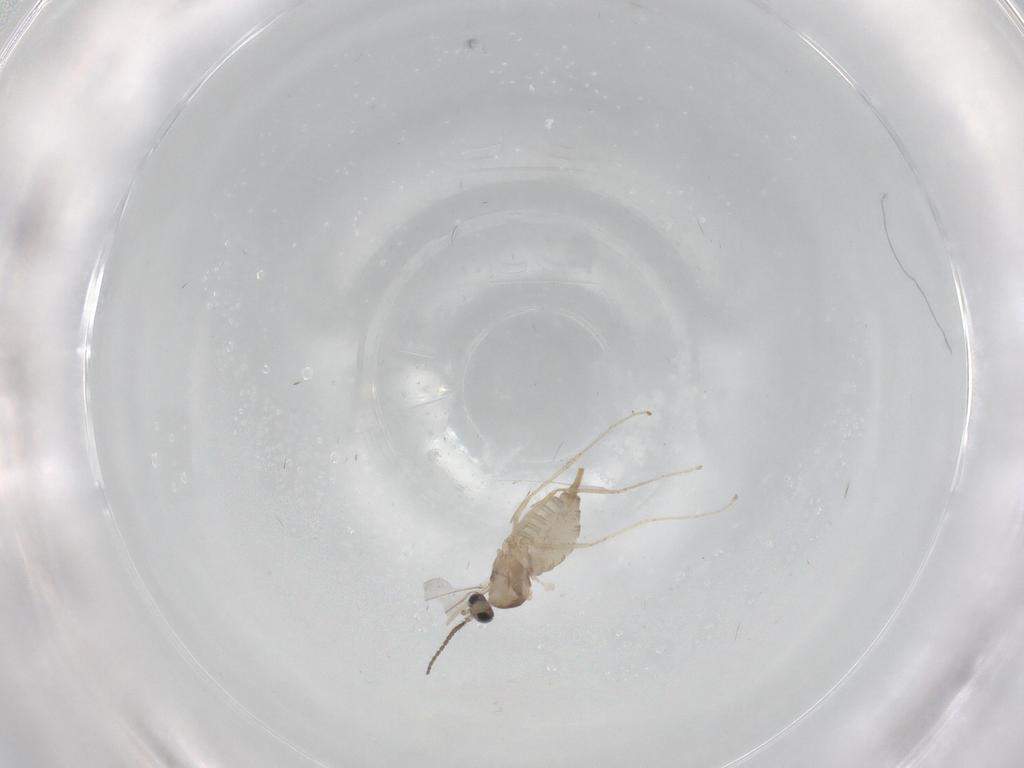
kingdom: Animalia
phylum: Arthropoda
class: Insecta
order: Diptera
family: Cecidomyiidae
